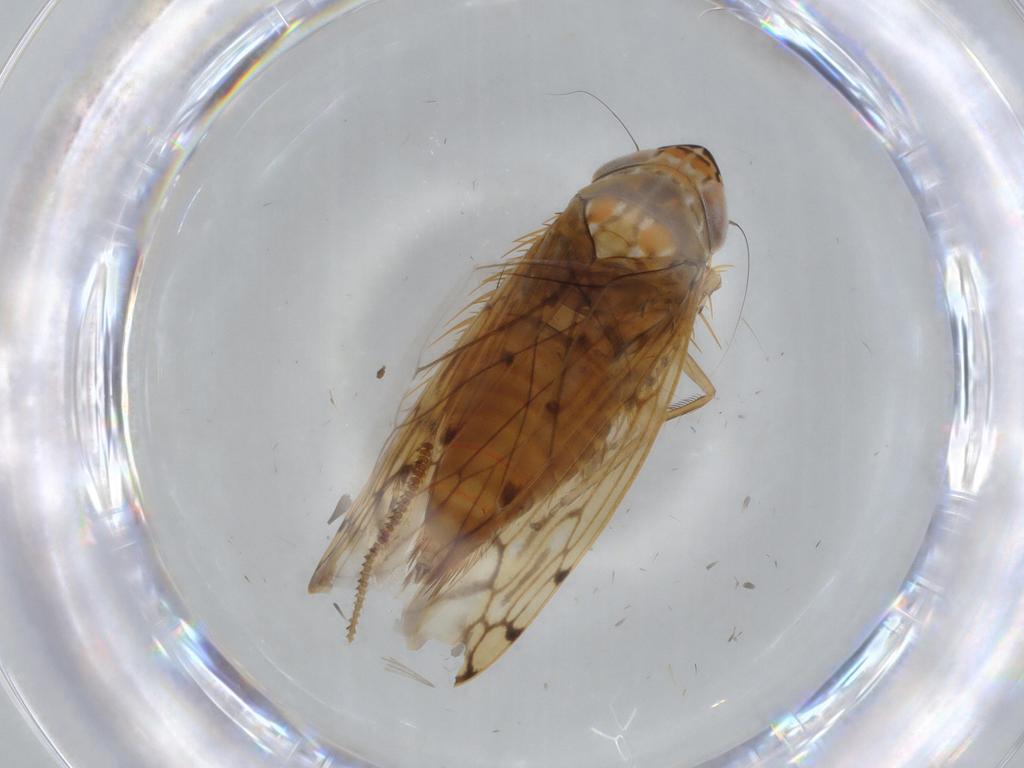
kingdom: Animalia
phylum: Arthropoda
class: Insecta
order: Hemiptera
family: Cicadellidae
